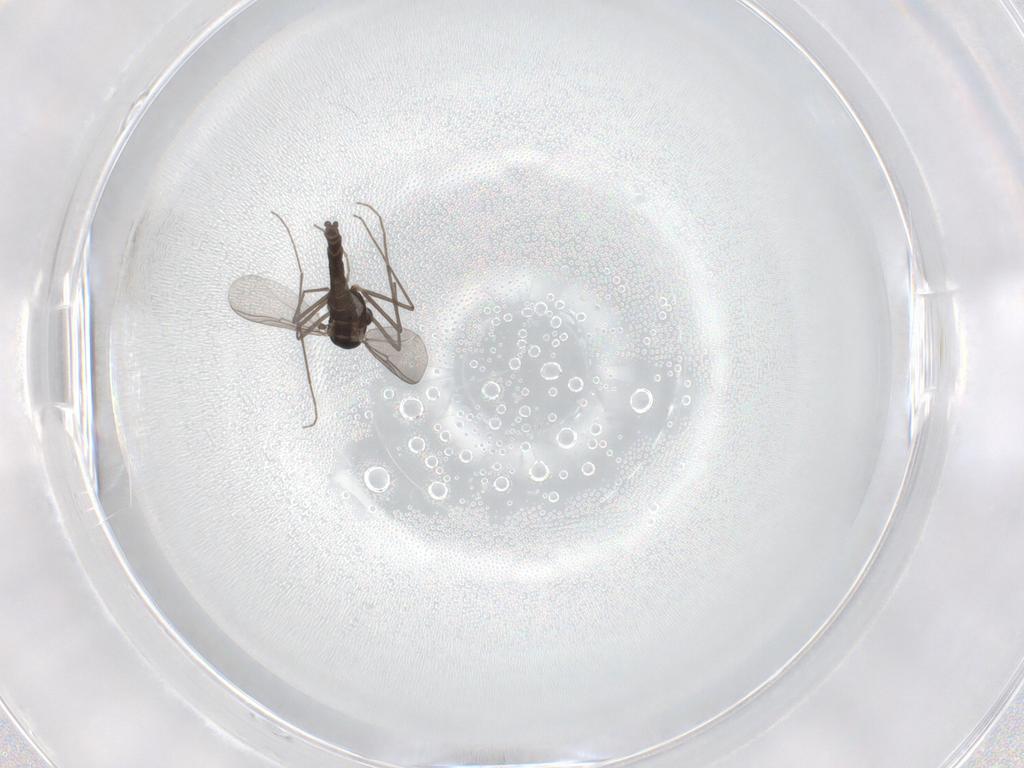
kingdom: Animalia
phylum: Arthropoda
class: Insecta
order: Diptera
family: Chironomidae
